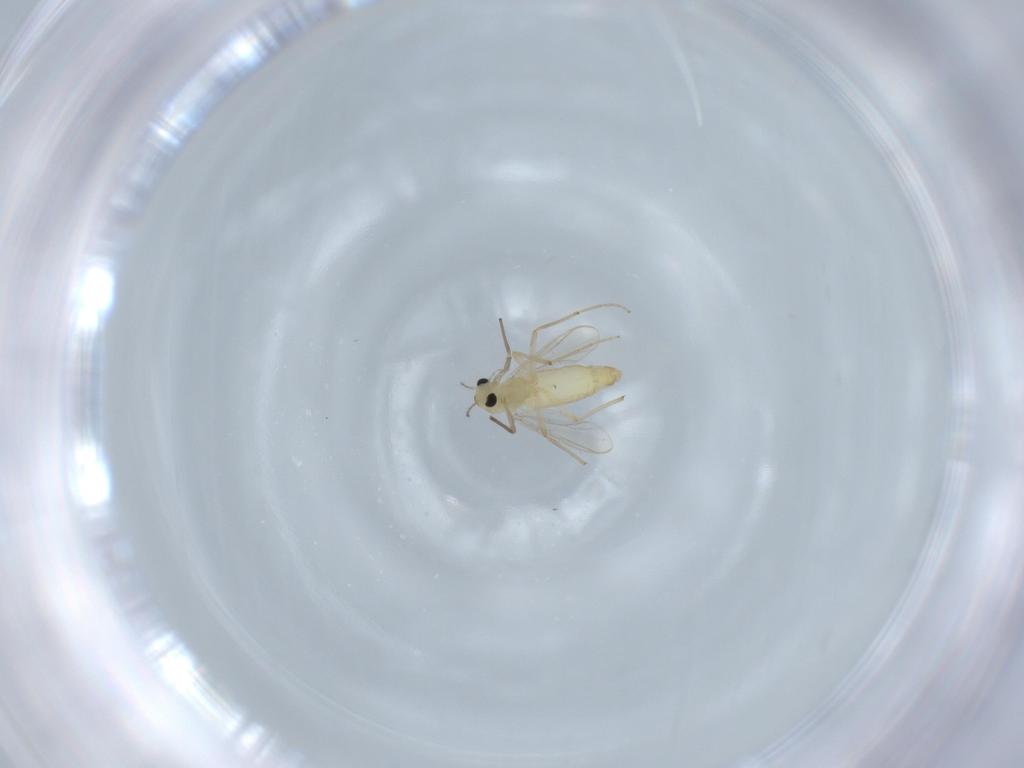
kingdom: Animalia
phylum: Arthropoda
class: Insecta
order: Diptera
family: Chironomidae
